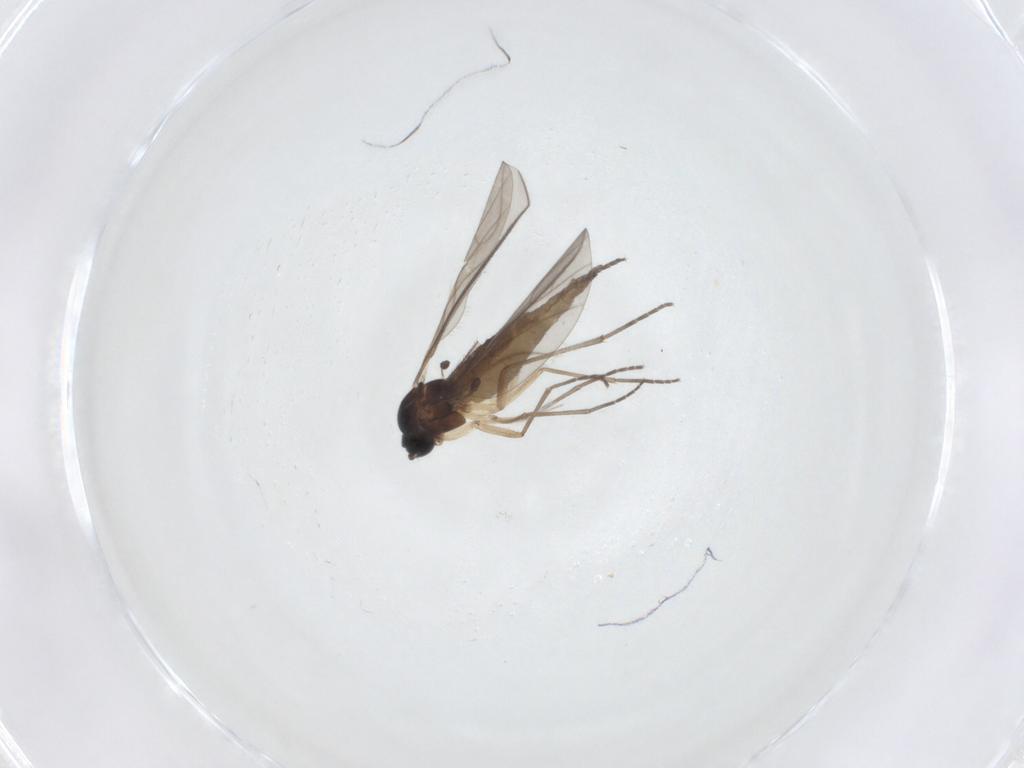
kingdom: Animalia
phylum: Arthropoda
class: Insecta
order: Diptera
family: Sciaridae
